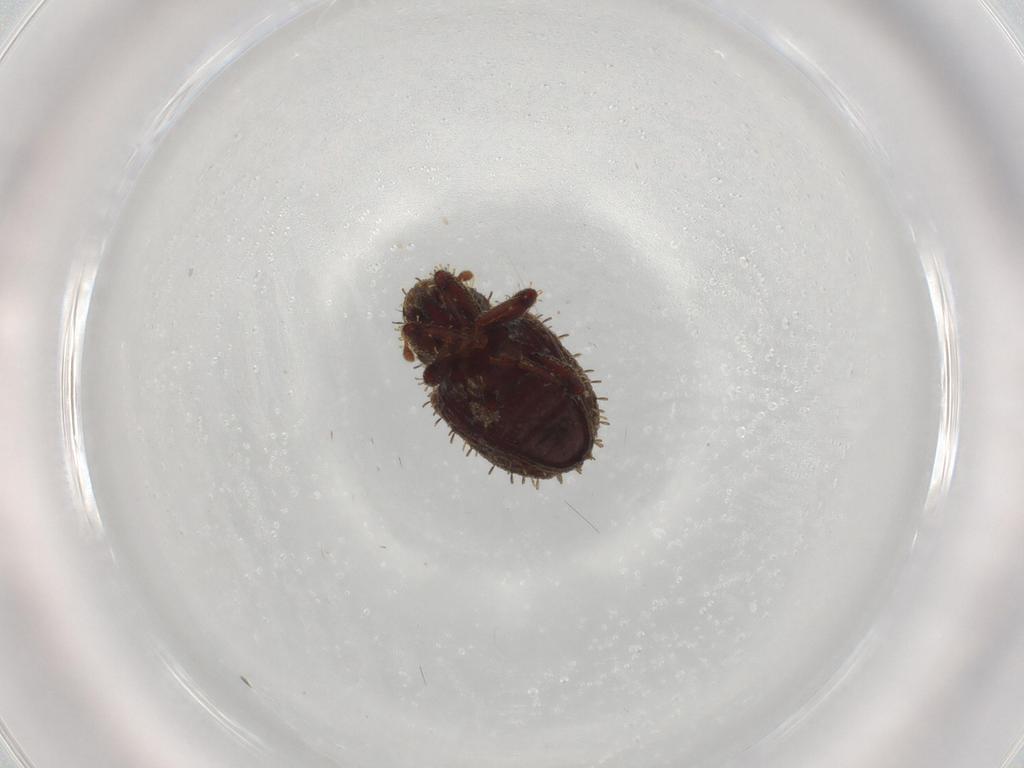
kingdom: Animalia
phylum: Arthropoda
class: Insecta
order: Coleoptera
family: Curculionidae
